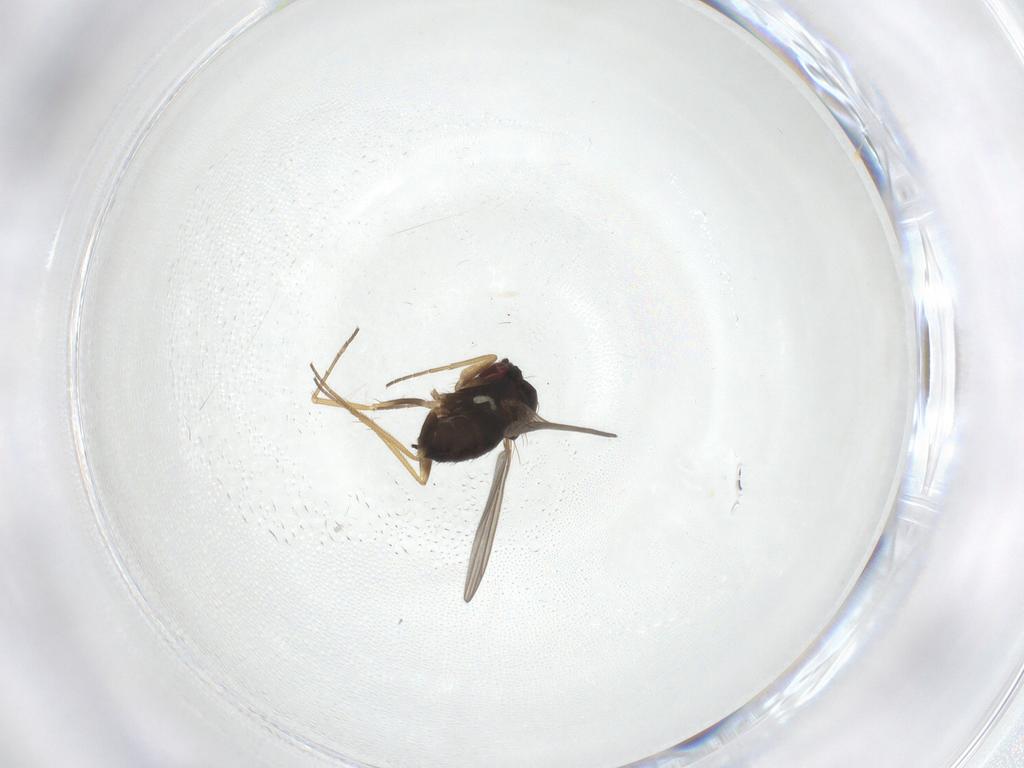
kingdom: Animalia
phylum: Arthropoda
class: Insecta
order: Diptera
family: Dolichopodidae
